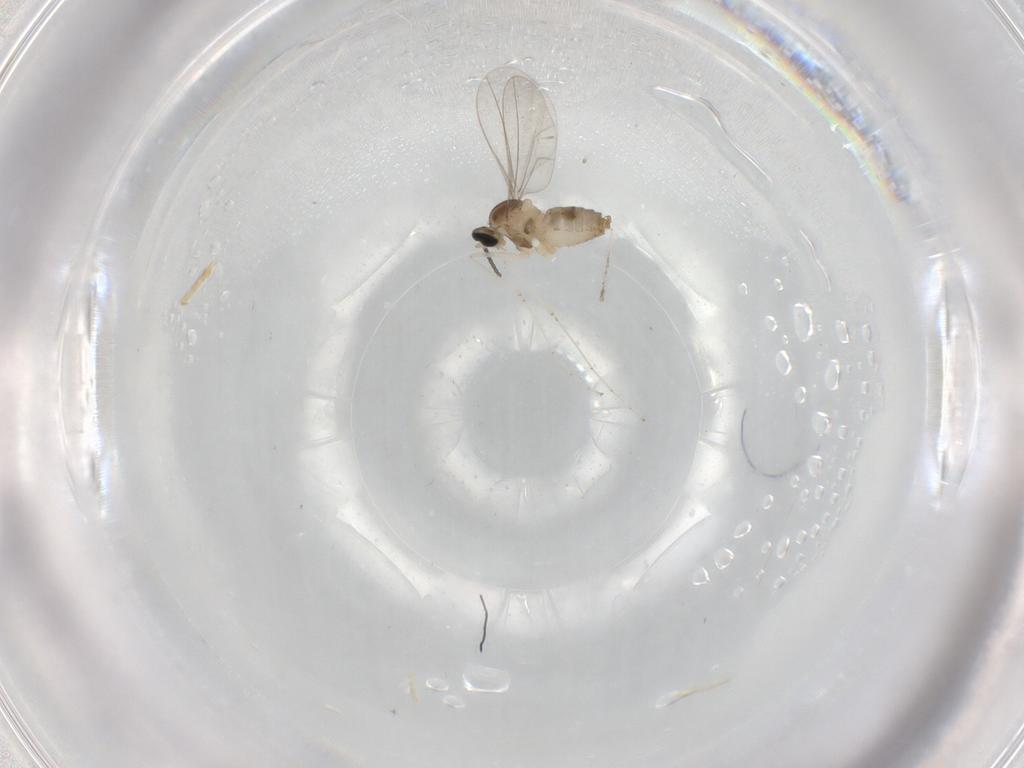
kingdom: Animalia
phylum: Arthropoda
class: Insecta
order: Diptera
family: Cecidomyiidae
